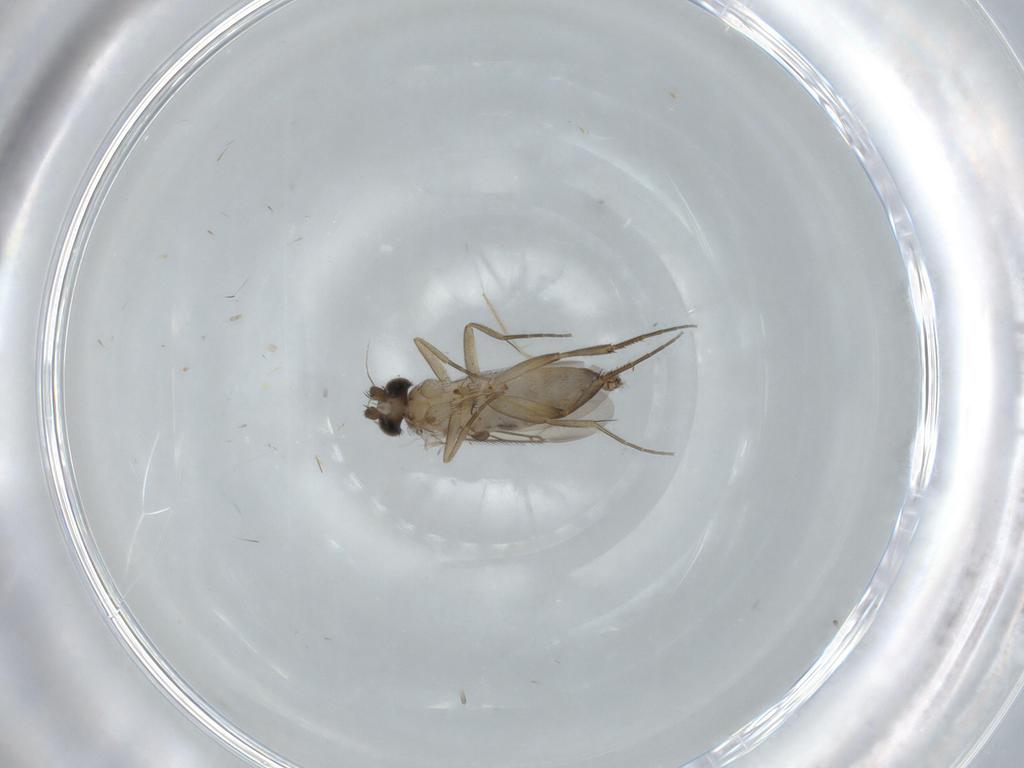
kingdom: Animalia
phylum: Arthropoda
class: Insecta
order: Diptera
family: Phoridae
